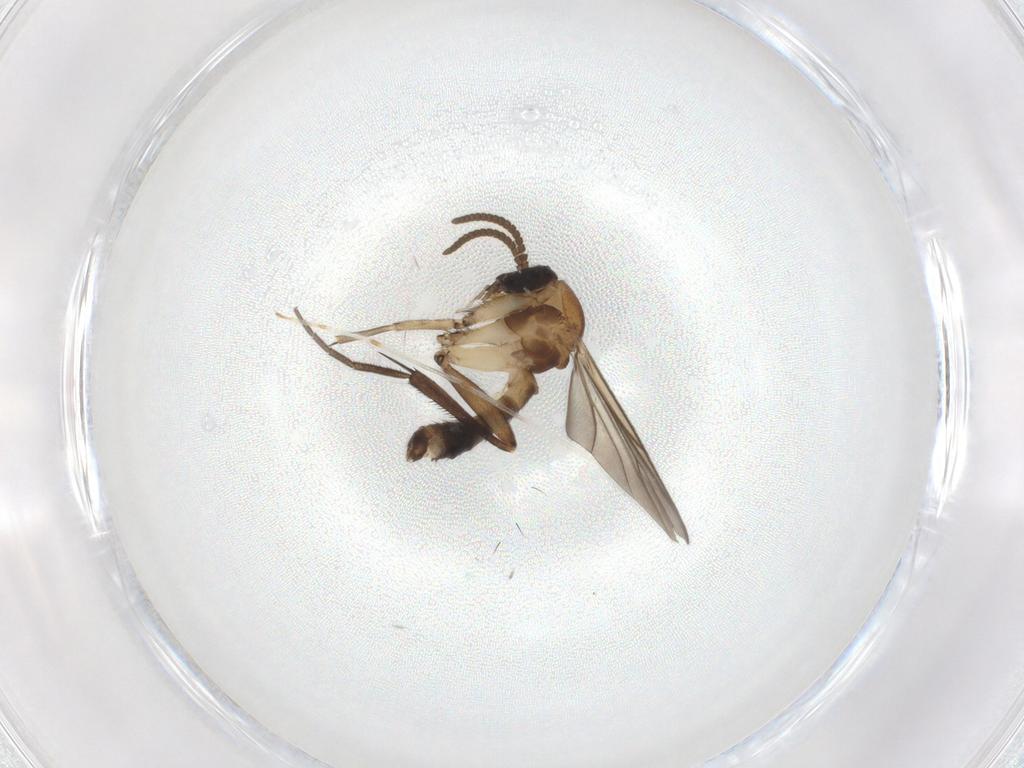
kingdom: Animalia
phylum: Arthropoda
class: Insecta
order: Diptera
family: Mycetophilidae
